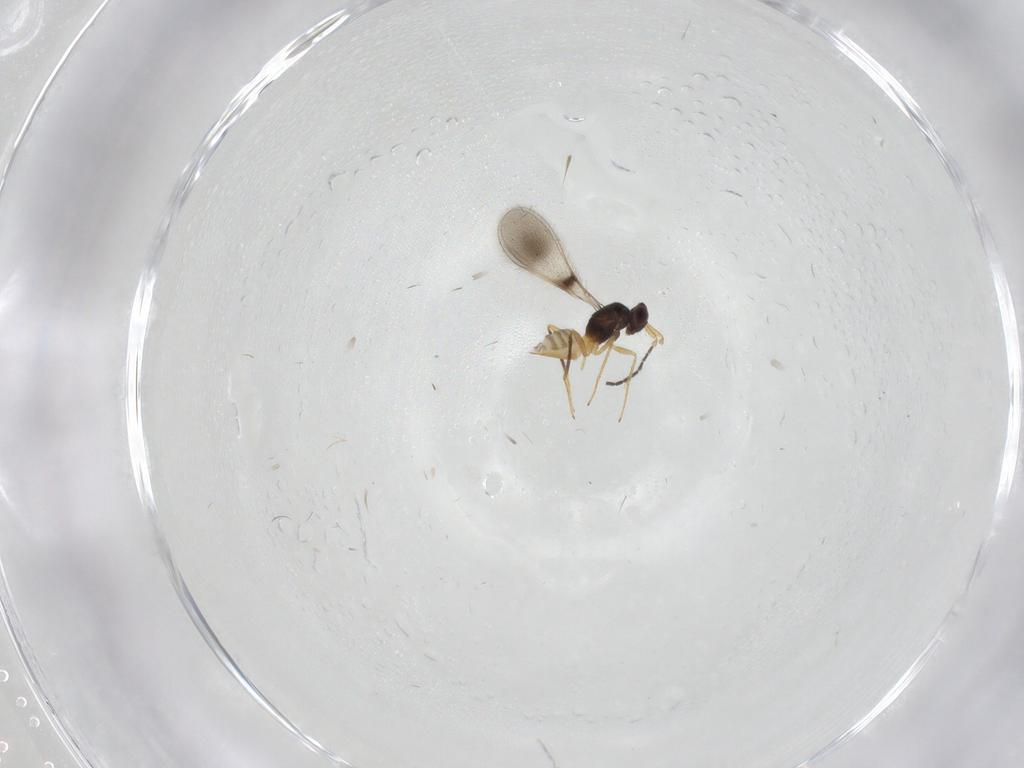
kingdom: Animalia
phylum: Arthropoda
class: Insecta
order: Hymenoptera
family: Mymaridae
